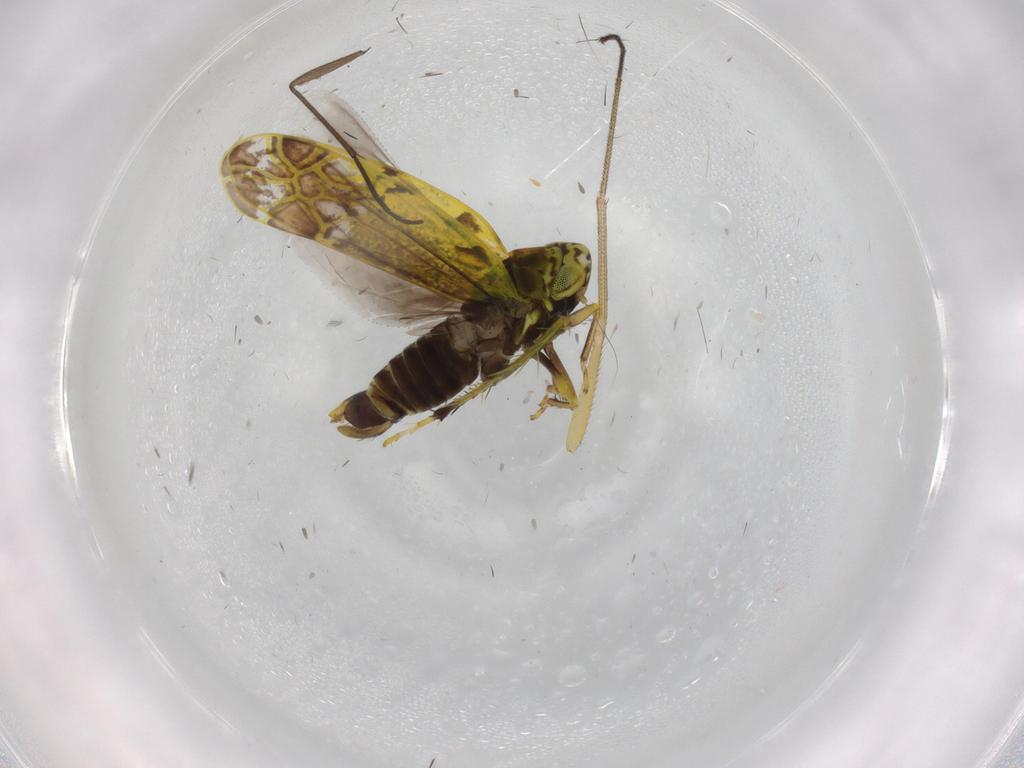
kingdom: Animalia
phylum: Arthropoda
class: Insecta
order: Hemiptera
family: Cicadellidae
